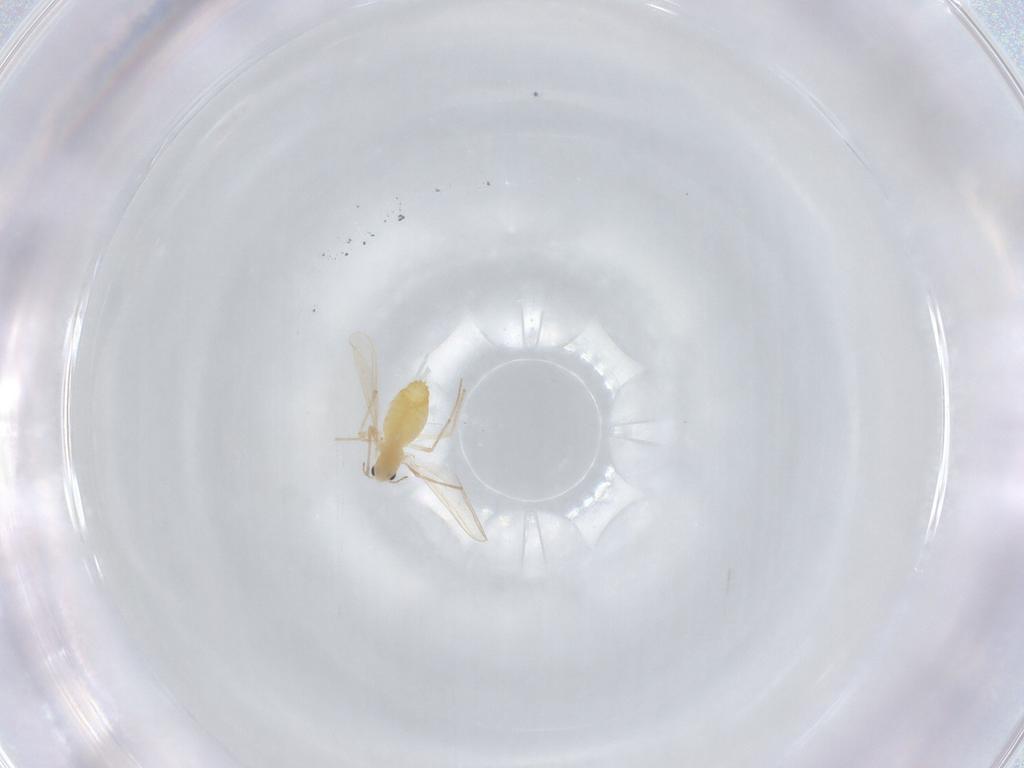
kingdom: Animalia
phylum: Arthropoda
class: Insecta
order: Diptera
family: Chironomidae
